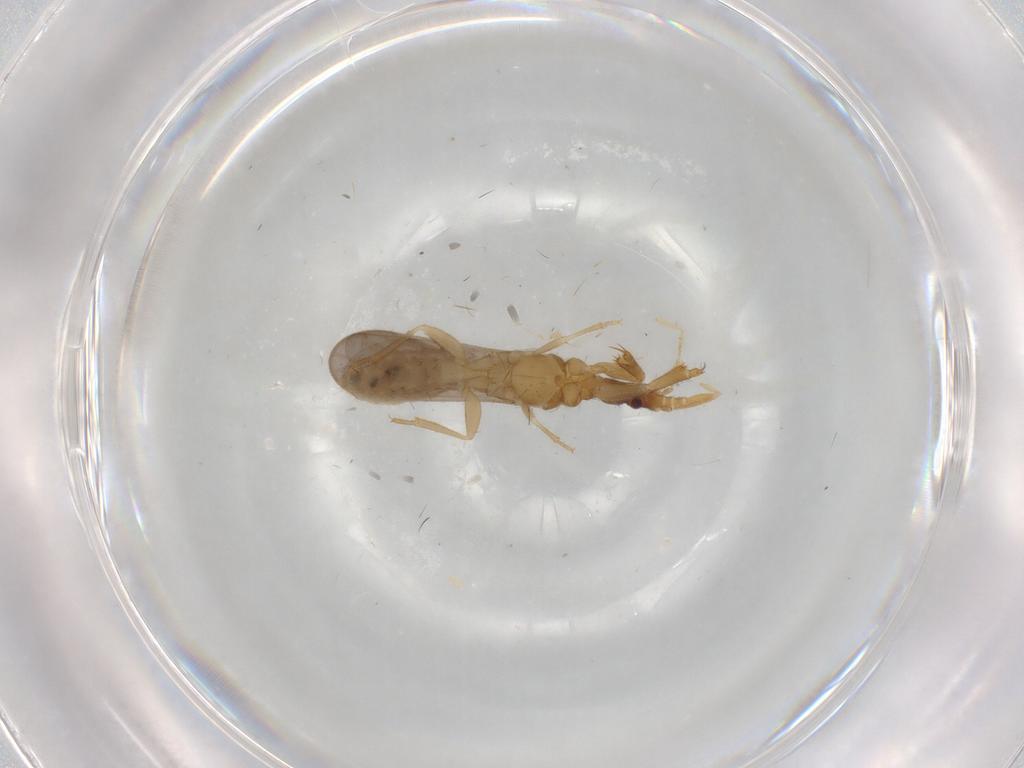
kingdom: Animalia
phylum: Arthropoda
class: Insecta
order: Hemiptera
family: Enicocephalidae
